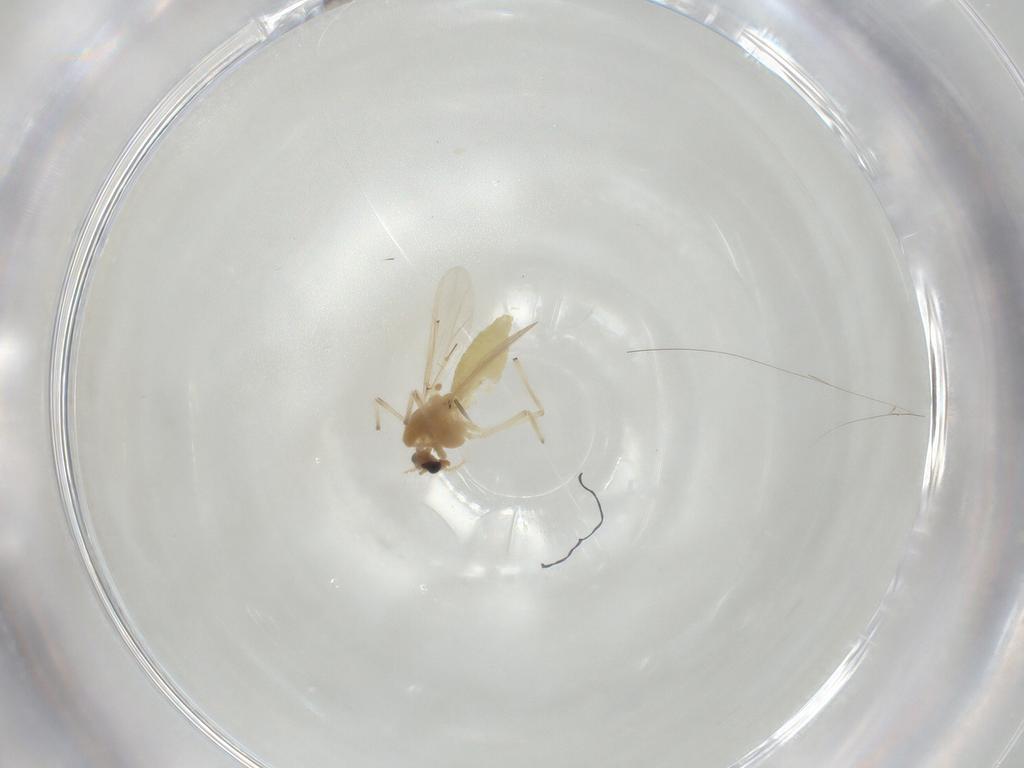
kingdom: Animalia
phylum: Arthropoda
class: Insecta
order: Diptera
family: Chironomidae
